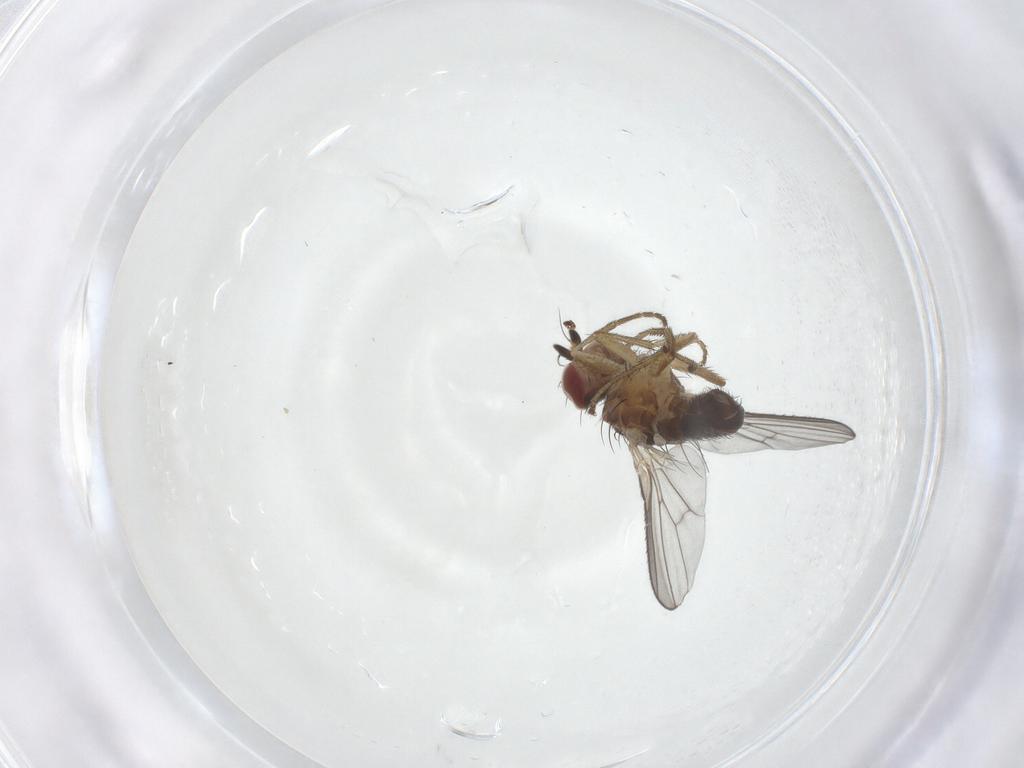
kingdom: Animalia
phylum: Arthropoda
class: Insecta
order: Diptera
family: Heleomyzidae
